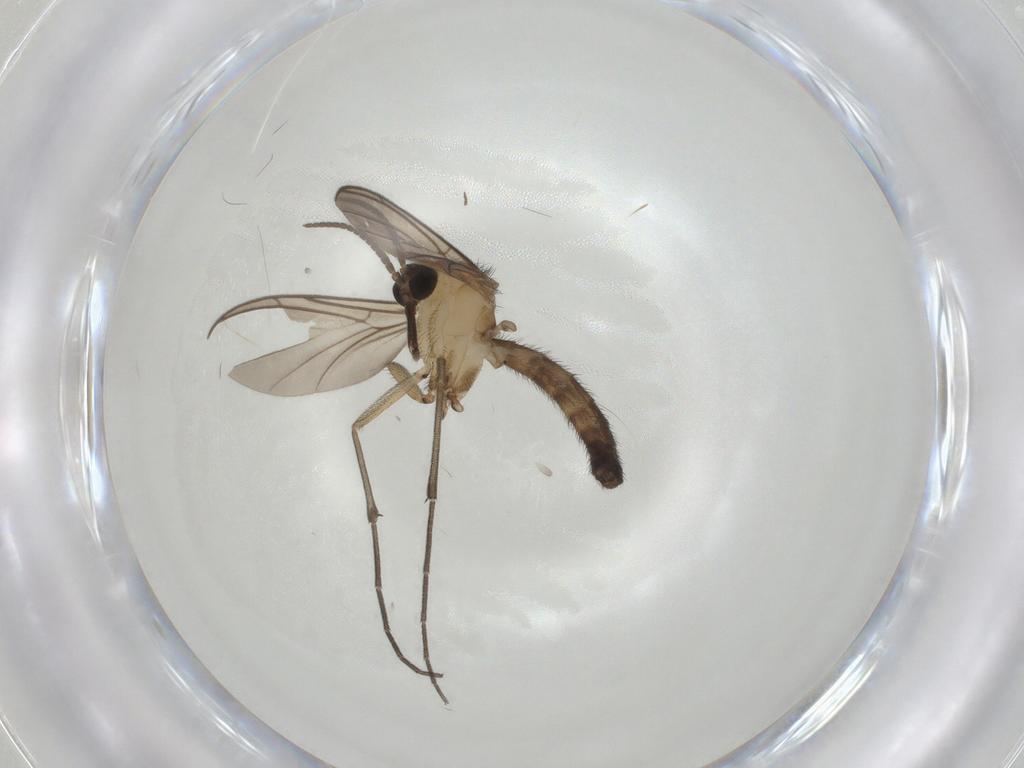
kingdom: Animalia
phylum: Arthropoda
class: Insecta
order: Diptera
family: Keroplatidae
